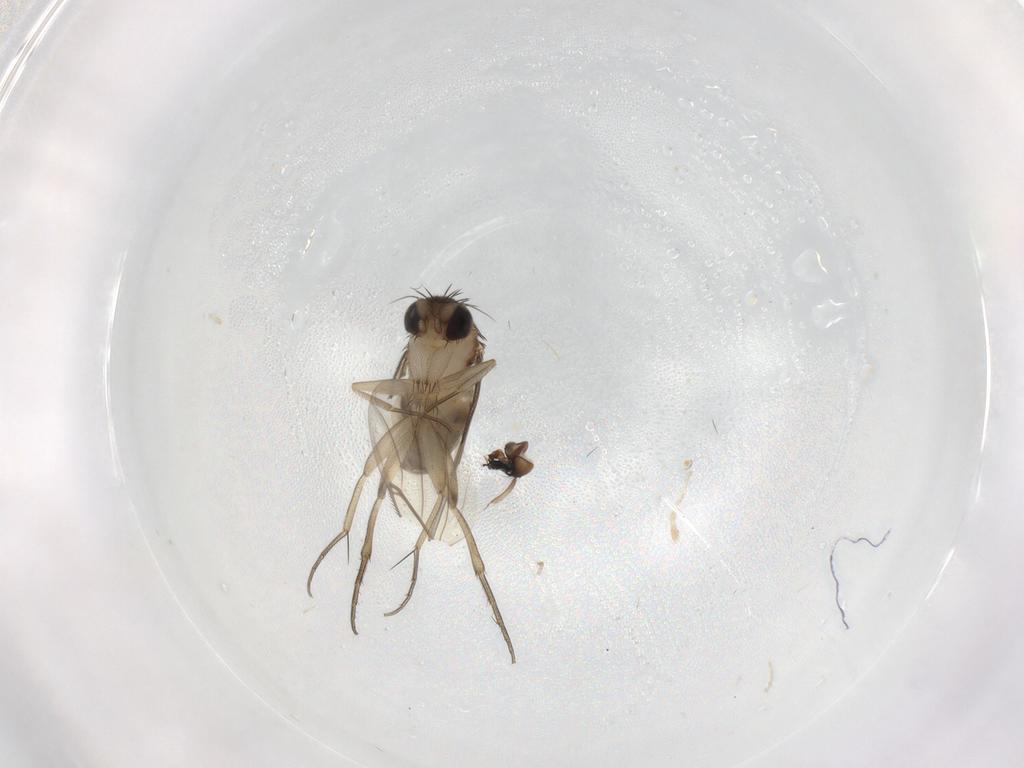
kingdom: Animalia
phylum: Arthropoda
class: Insecta
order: Diptera
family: Phoridae
